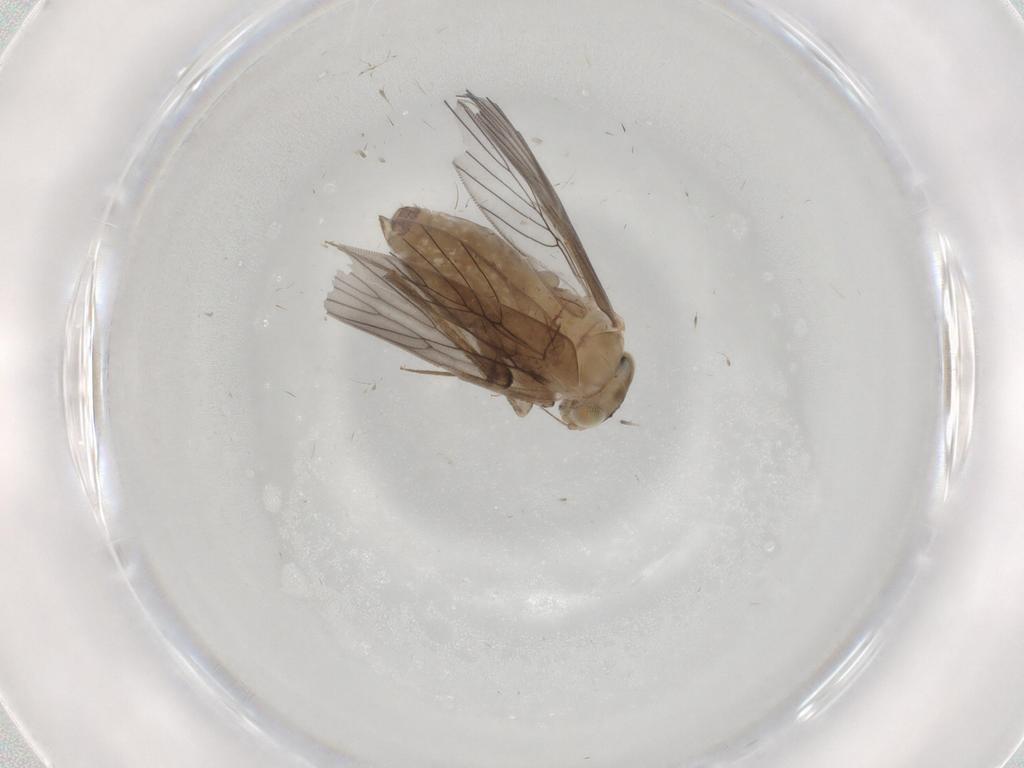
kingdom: Animalia
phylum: Arthropoda
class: Insecta
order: Psocodea
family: Lepidopsocidae
